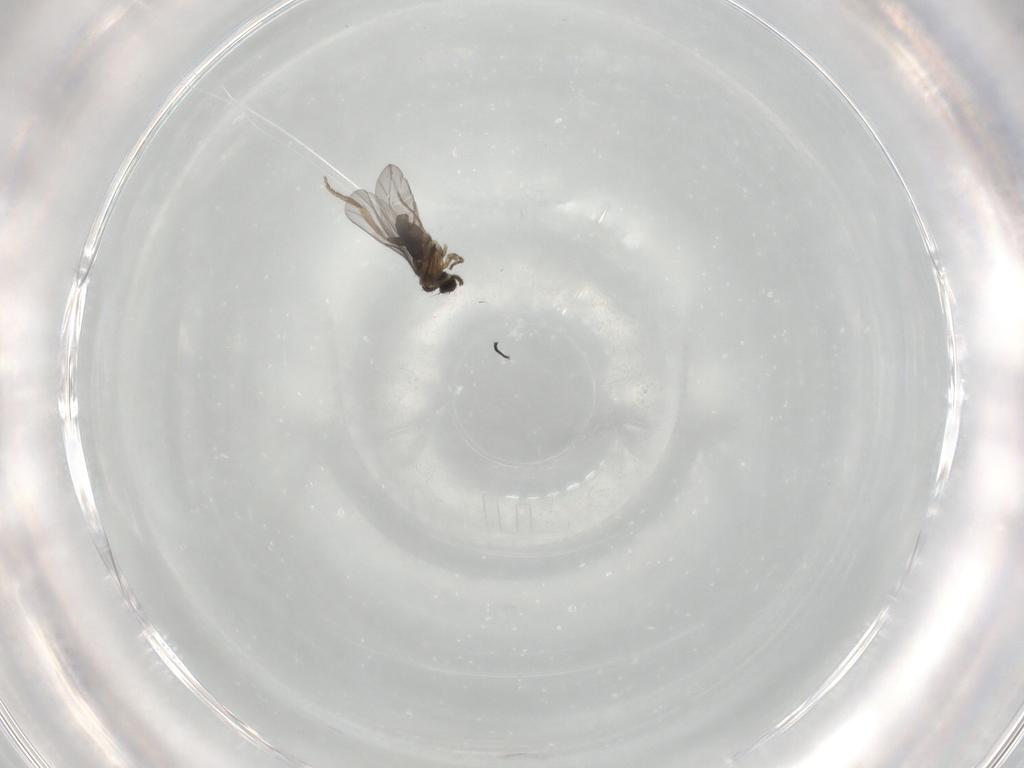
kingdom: Animalia
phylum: Arthropoda
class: Insecta
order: Diptera
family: Phoridae
